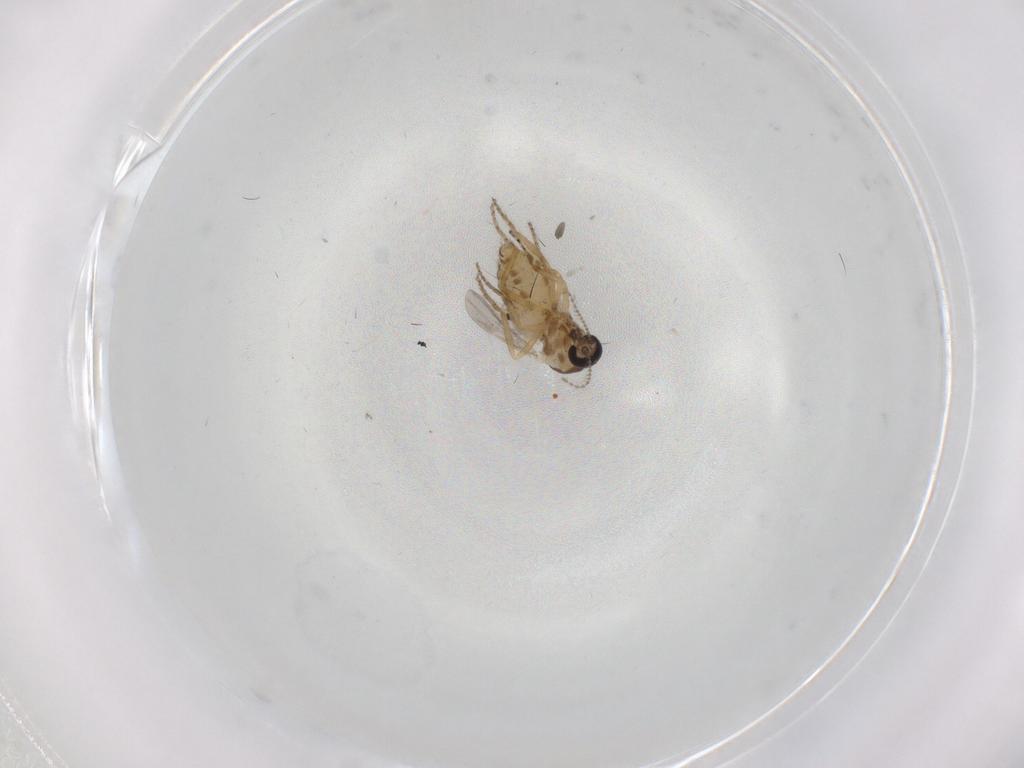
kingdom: Animalia
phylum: Arthropoda
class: Insecta
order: Diptera
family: Ceratopogonidae
